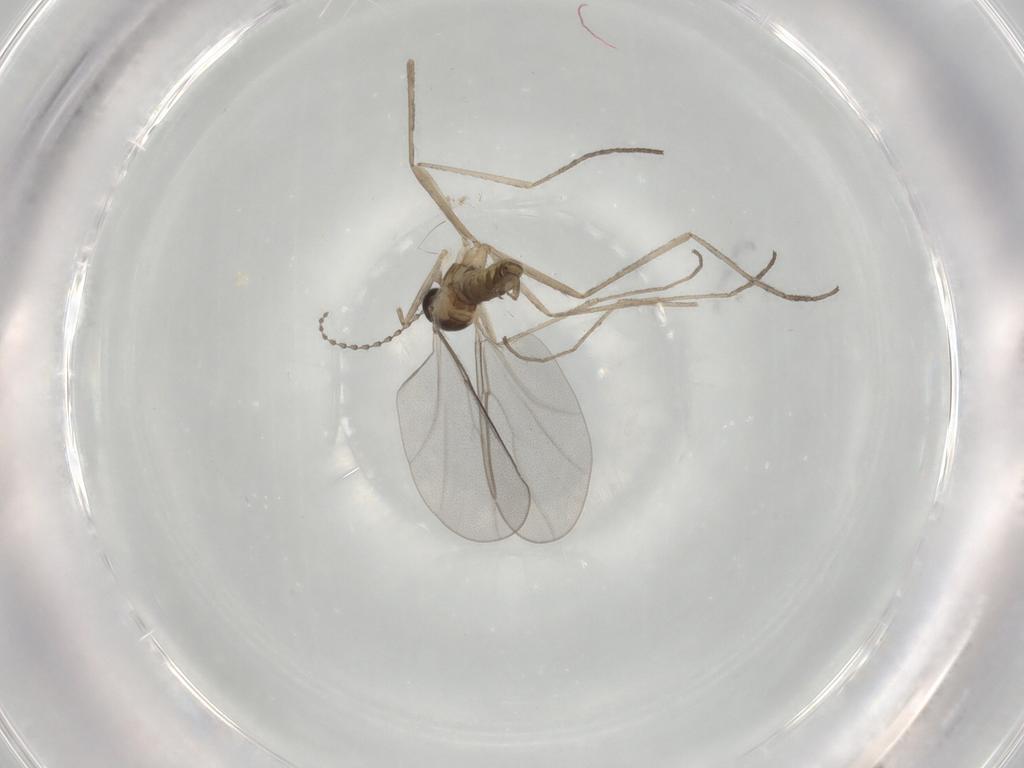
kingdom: Animalia
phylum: Arthropoda
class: Insecta
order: Diptera
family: Cecidomyiidae
